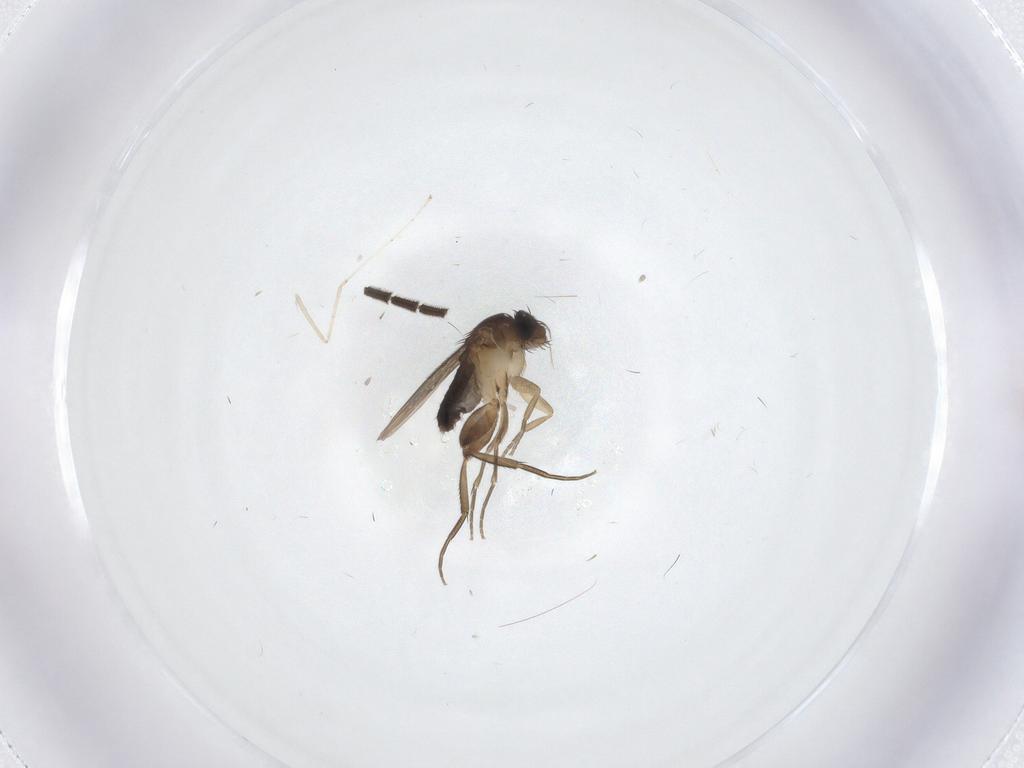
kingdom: Animalia
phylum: Arthropoda
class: Insecta
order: Diptera
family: Phoridae
